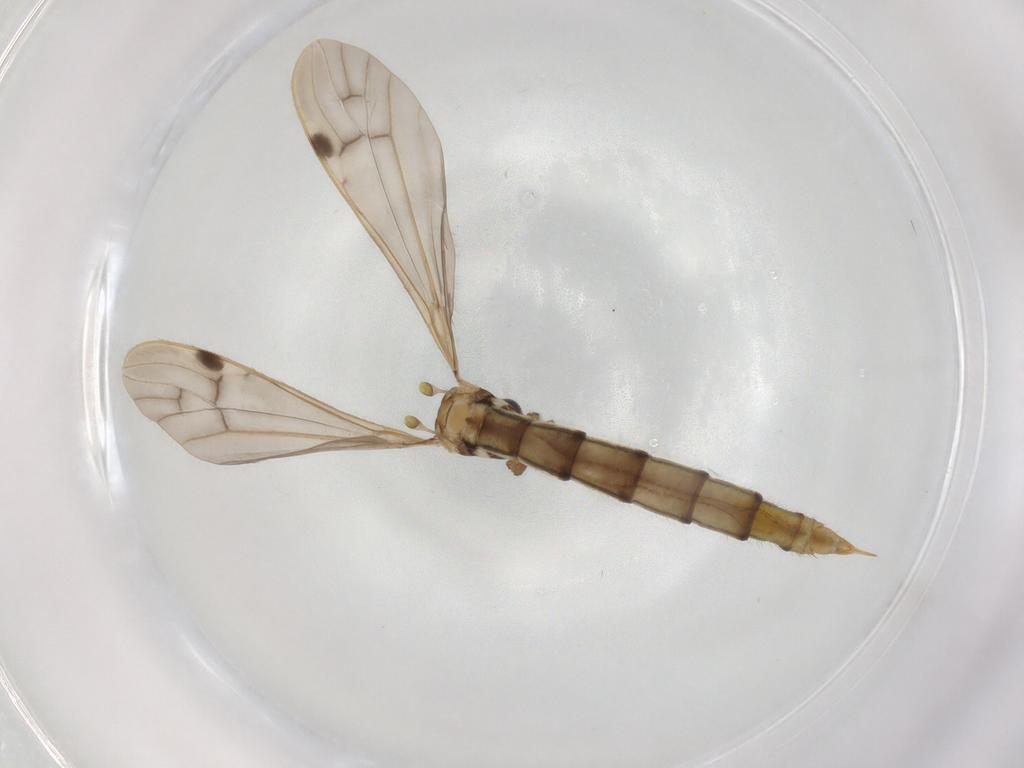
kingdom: Animalia
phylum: Arthropoda
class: Insecta
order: Diptera
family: Limoniidae
